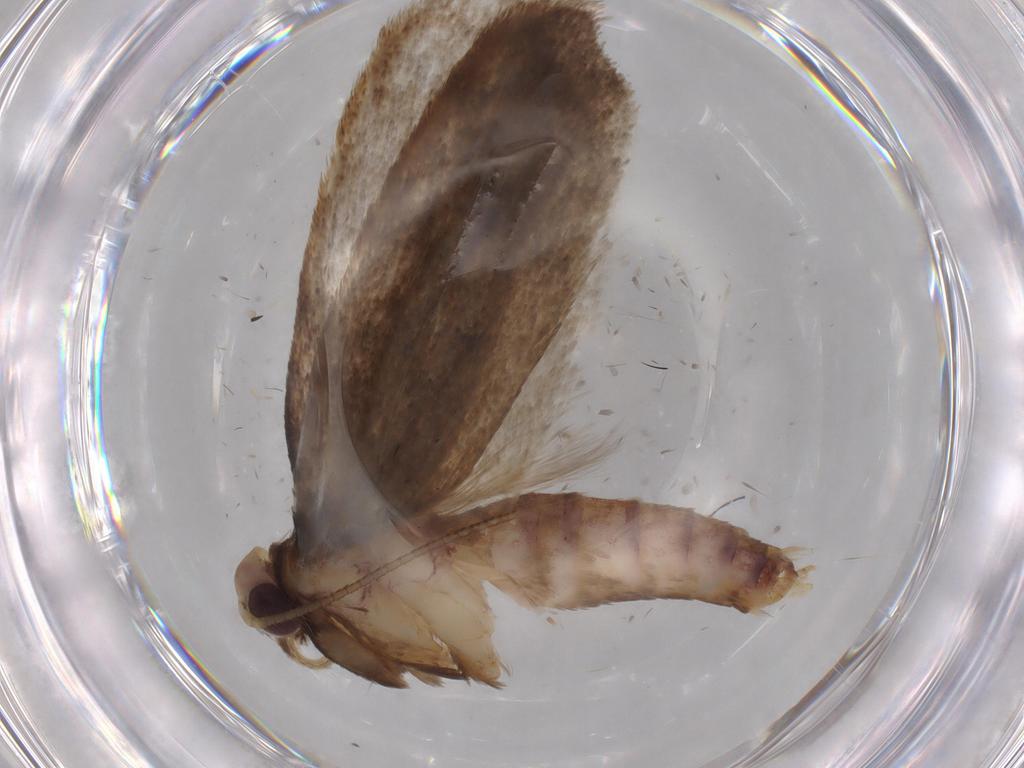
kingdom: Animalia
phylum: Arthropoda
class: Insecta
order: Lepidoptera
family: Oecophoridae
